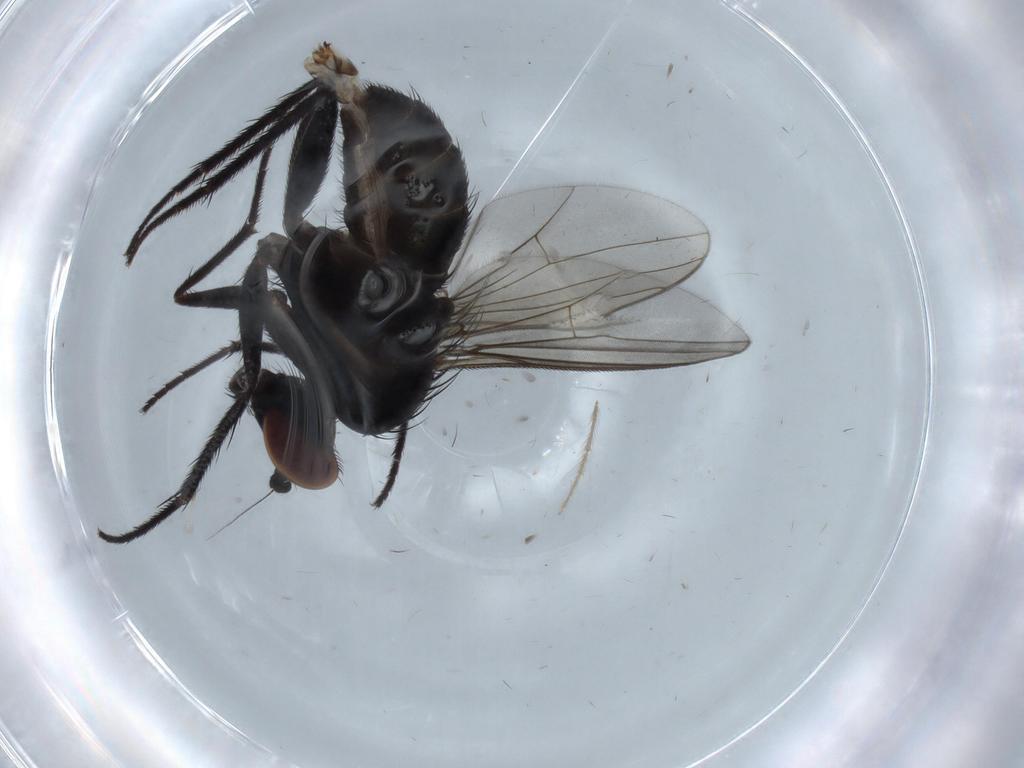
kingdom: Animalia
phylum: Arthropoda
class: Insecta
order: Diptera
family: Dolichopodidae
